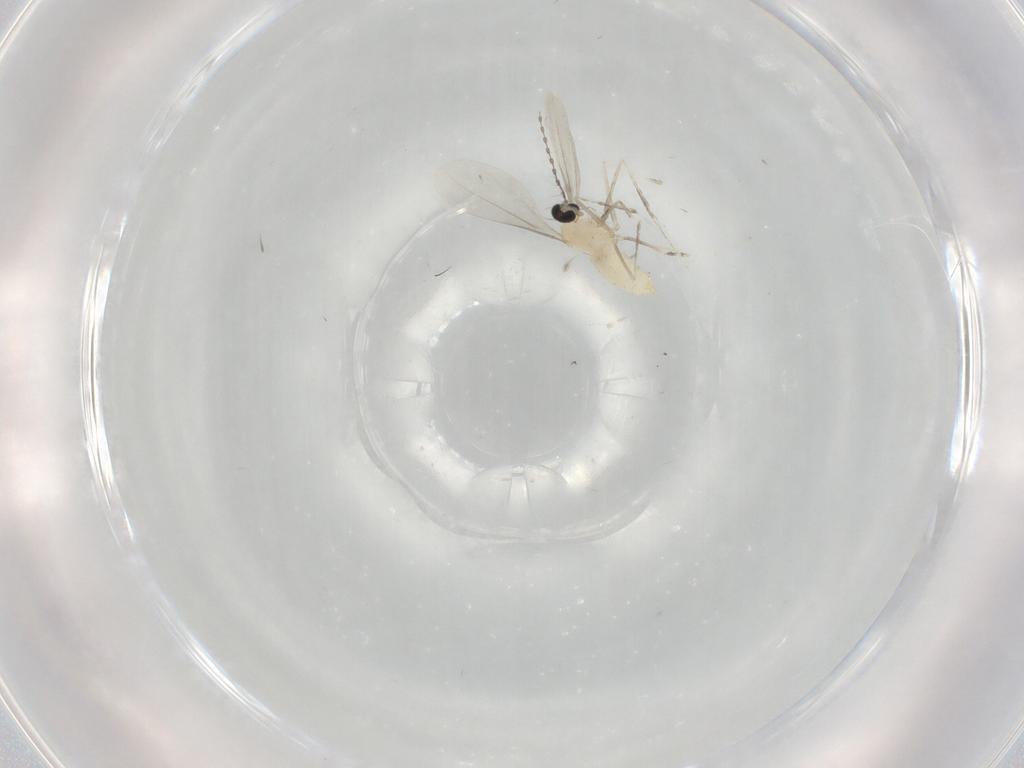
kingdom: Animalia
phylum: Arthropoda
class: Insecta
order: Diptera
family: Cecidomyiidae
